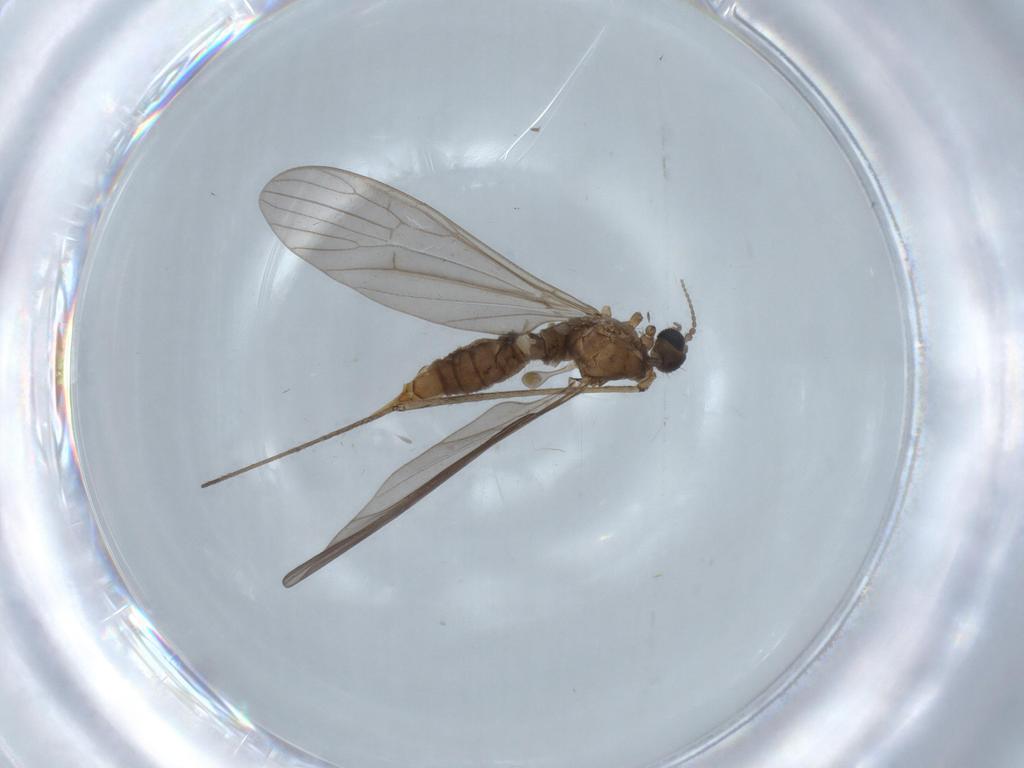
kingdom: Animalia
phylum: Arthropoda
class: Insecta
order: Diptera
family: Limoniidae
